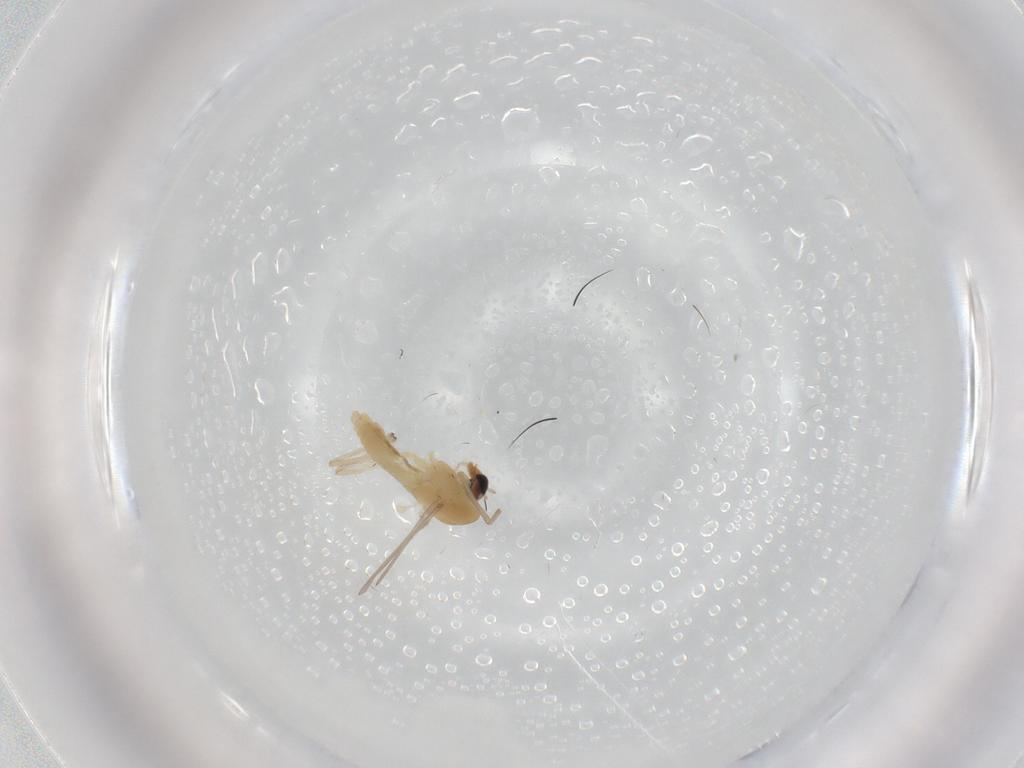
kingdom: Animalia
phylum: Arthropoda
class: Insecta
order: Diptera
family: Chironomidae
